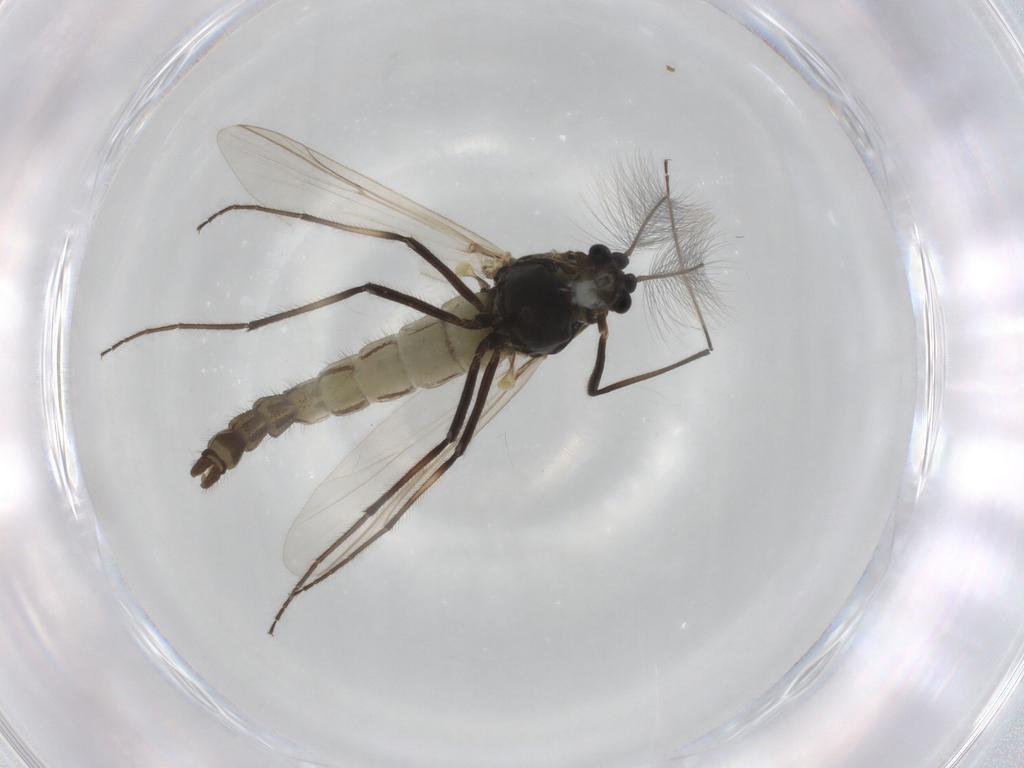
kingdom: Animalia
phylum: Arthropoda
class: Insecta
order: Diptera
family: Chironomidae
